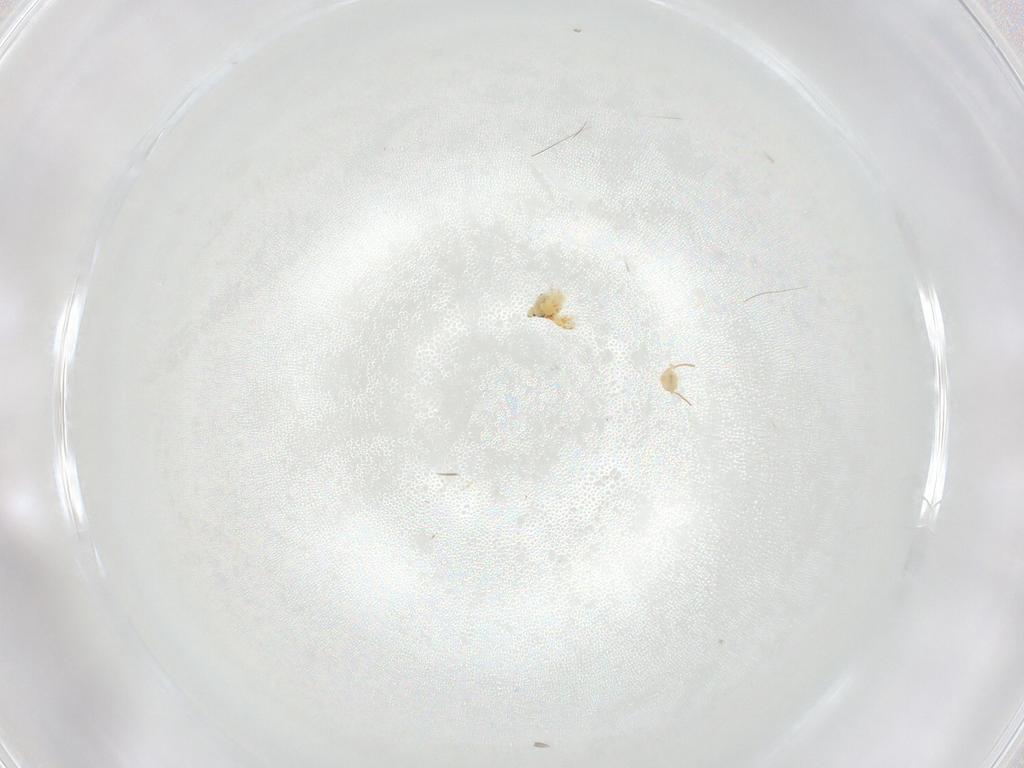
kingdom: Animalia
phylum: Arthropoda
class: Collembola
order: Symphypleona
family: Bourletiellidae
